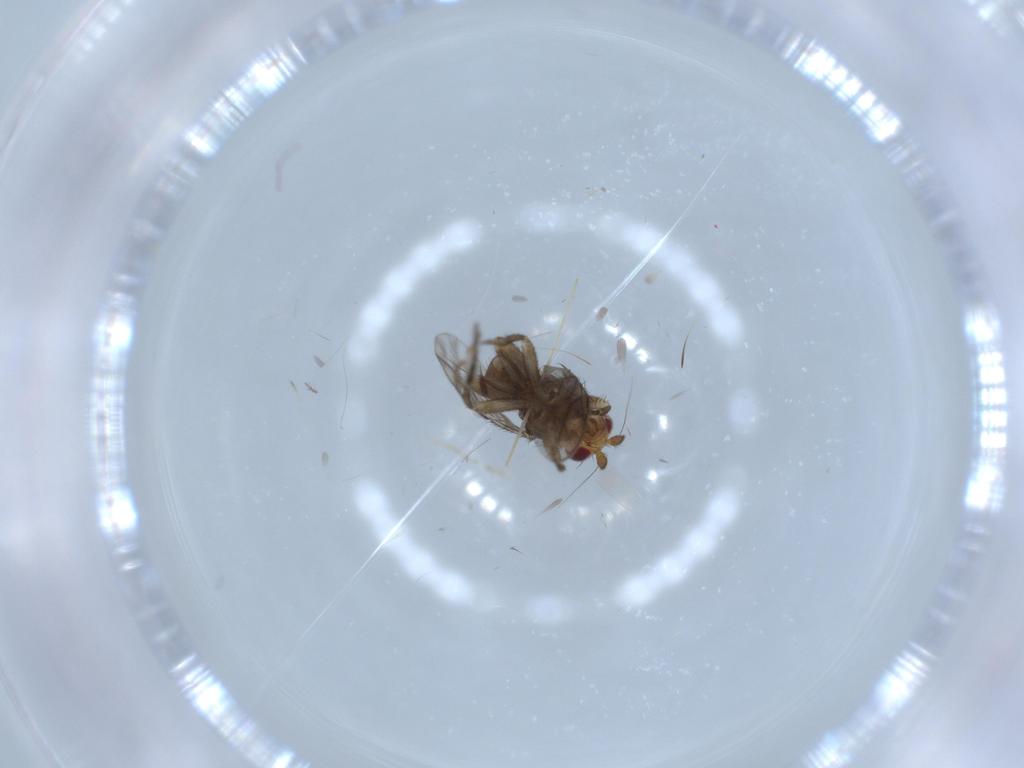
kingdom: Animalia
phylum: Arthropoda
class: Insecta
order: Diptera
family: Sphaeroceridae
